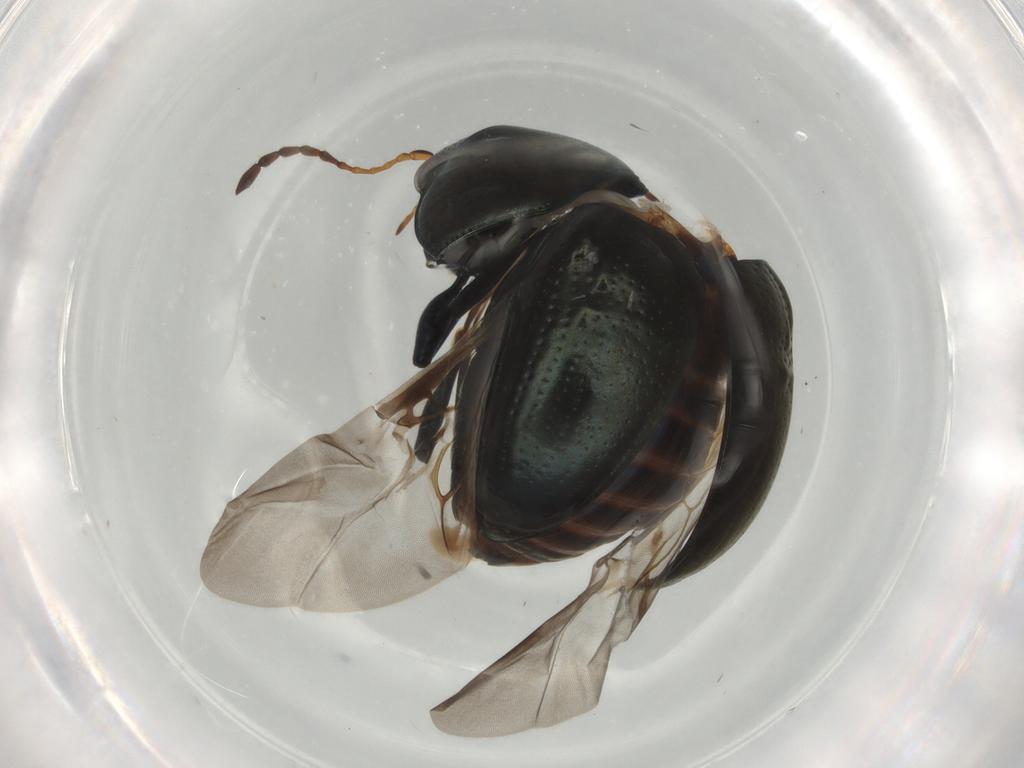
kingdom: Animalia
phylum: Arthropoda
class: Insecta
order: Coleoptera
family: Chrysomelidae
